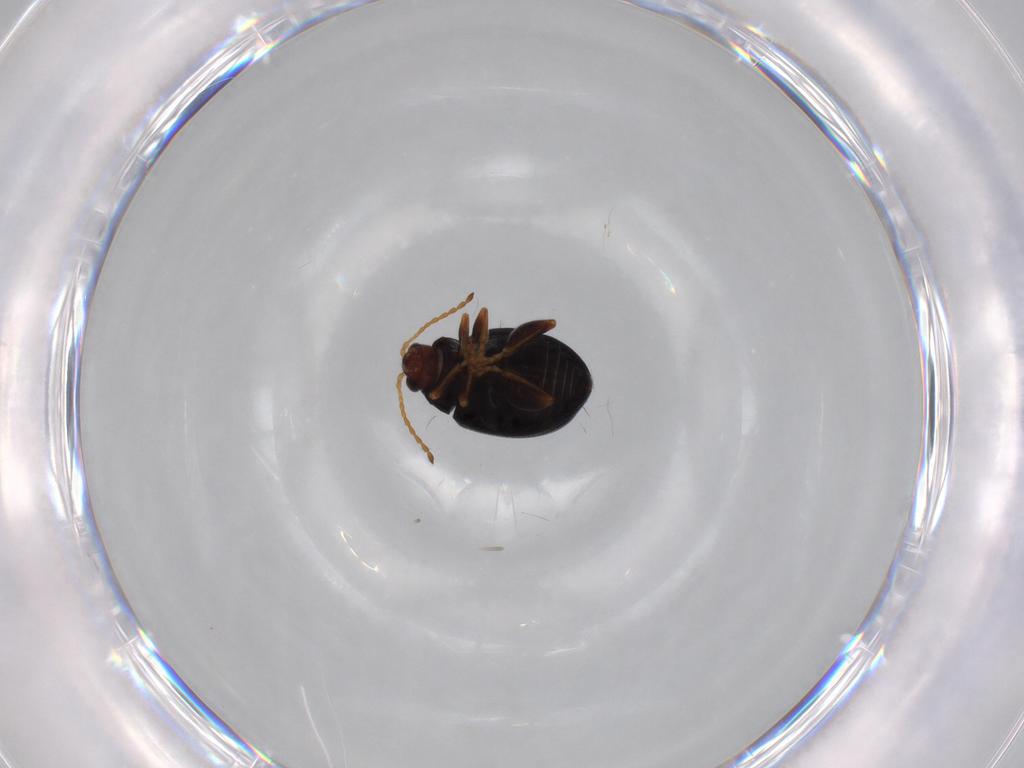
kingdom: Animalia
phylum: Arthropoda
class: Insecta
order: Coleoptera
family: Chrysomelidae
